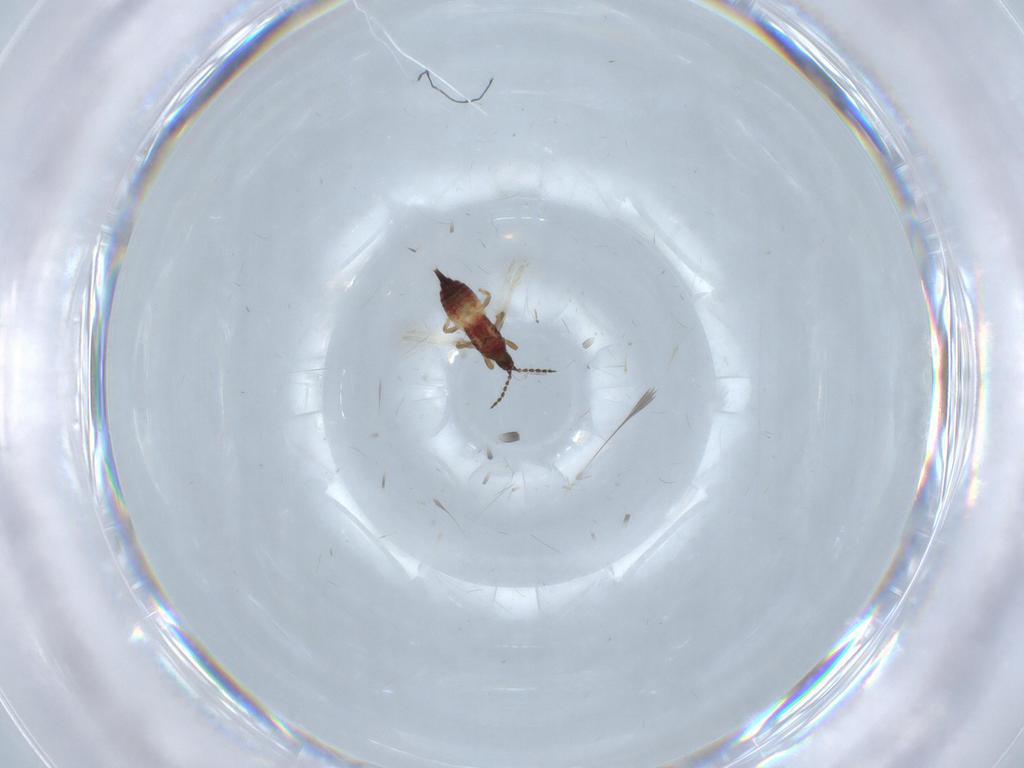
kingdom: Animalia
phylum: Arthropoda
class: Insecta
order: Thysanoptera
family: Phlaeothripidae
